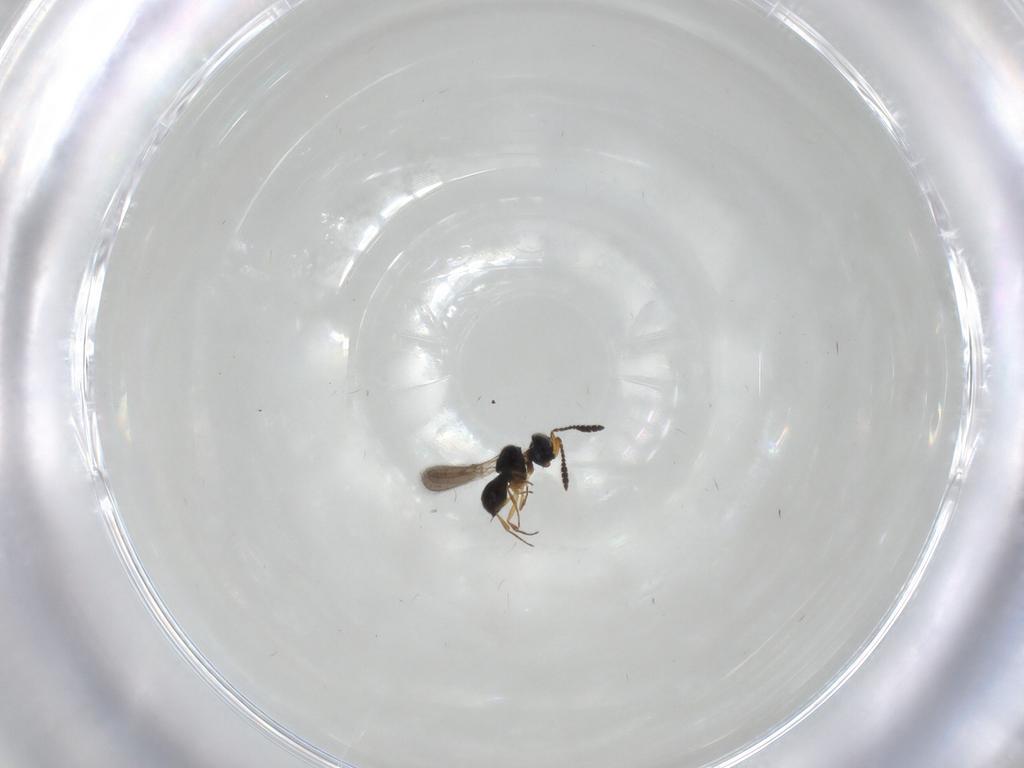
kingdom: Animalia
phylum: Arthropoda
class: Insecta
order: Hymenoptera
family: Scelionidae
